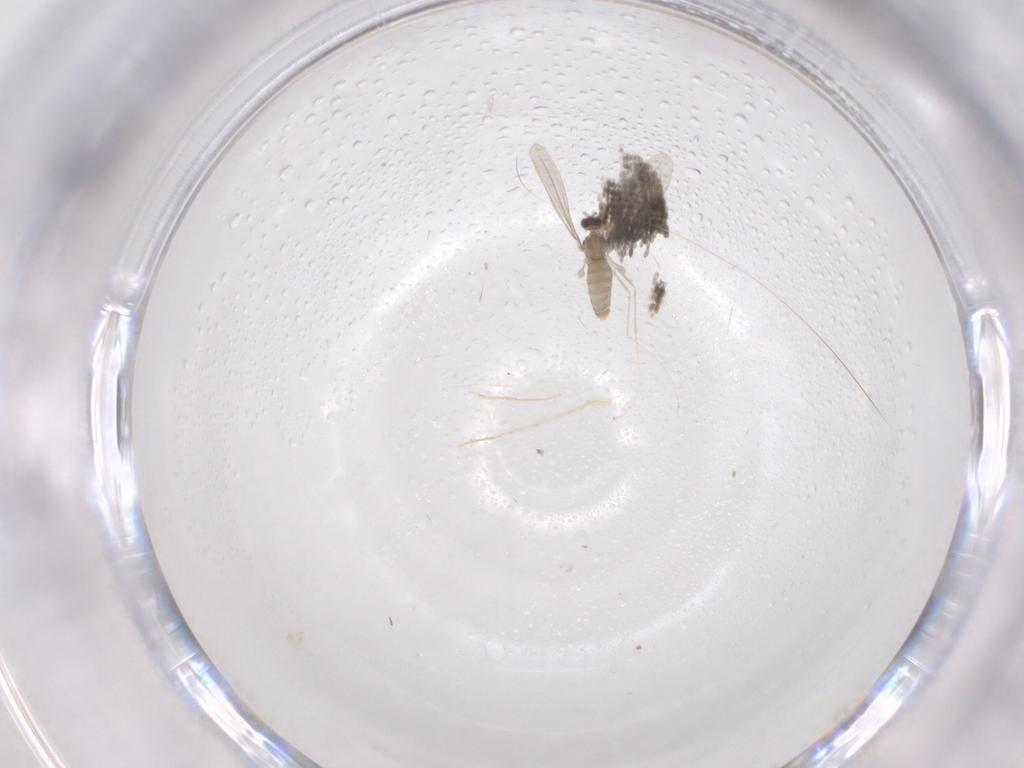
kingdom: Animalia
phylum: Arthropoda
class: Insecta
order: Diptera
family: Cecidomyiidae
